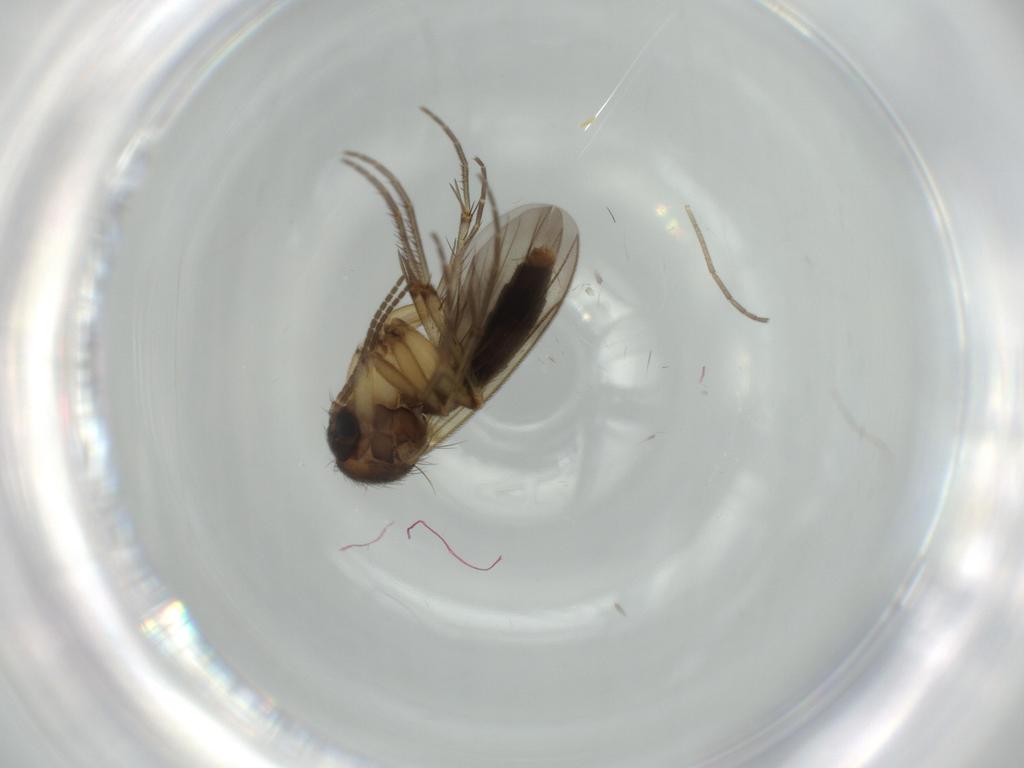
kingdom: Animalia
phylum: Arthropoda
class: Insecta
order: Diptera
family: Cecidomyiidae
